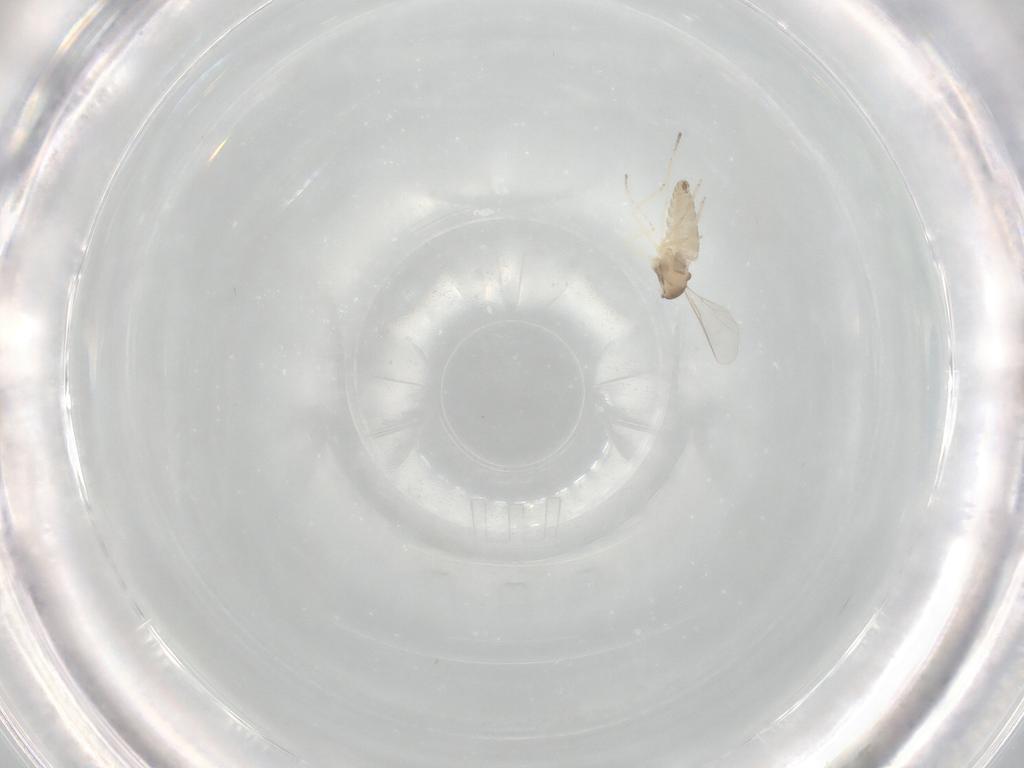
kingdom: Animalia
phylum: Arthropoda
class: Insecta
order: Diptera
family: Cecidomyiidae
